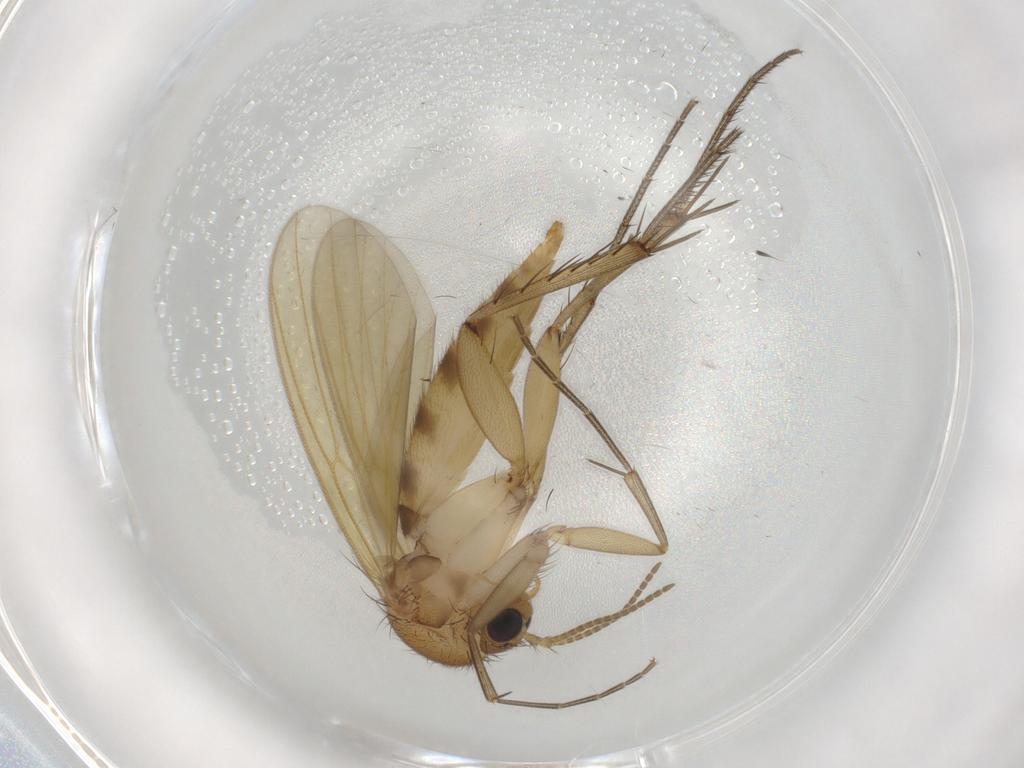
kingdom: Animalia
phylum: Arthropoda
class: Insecta
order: Diptera
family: Mycetophilidae
